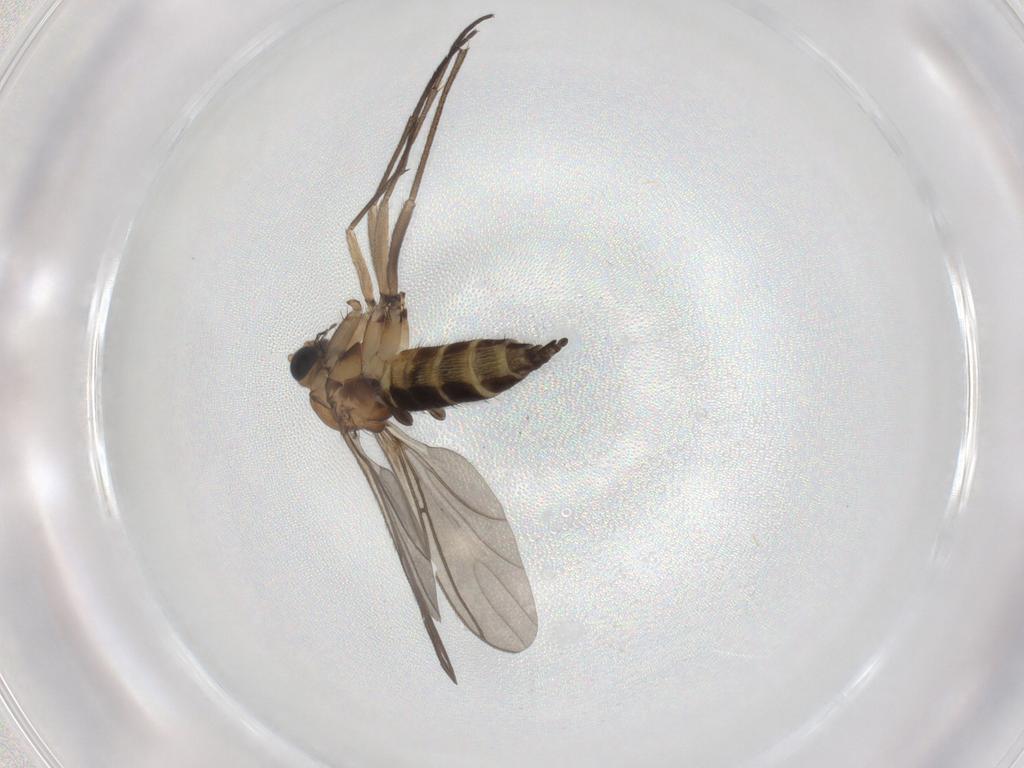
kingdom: Animalia
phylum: Arthropoda
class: Insecta
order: Diptera
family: Sciaridae
